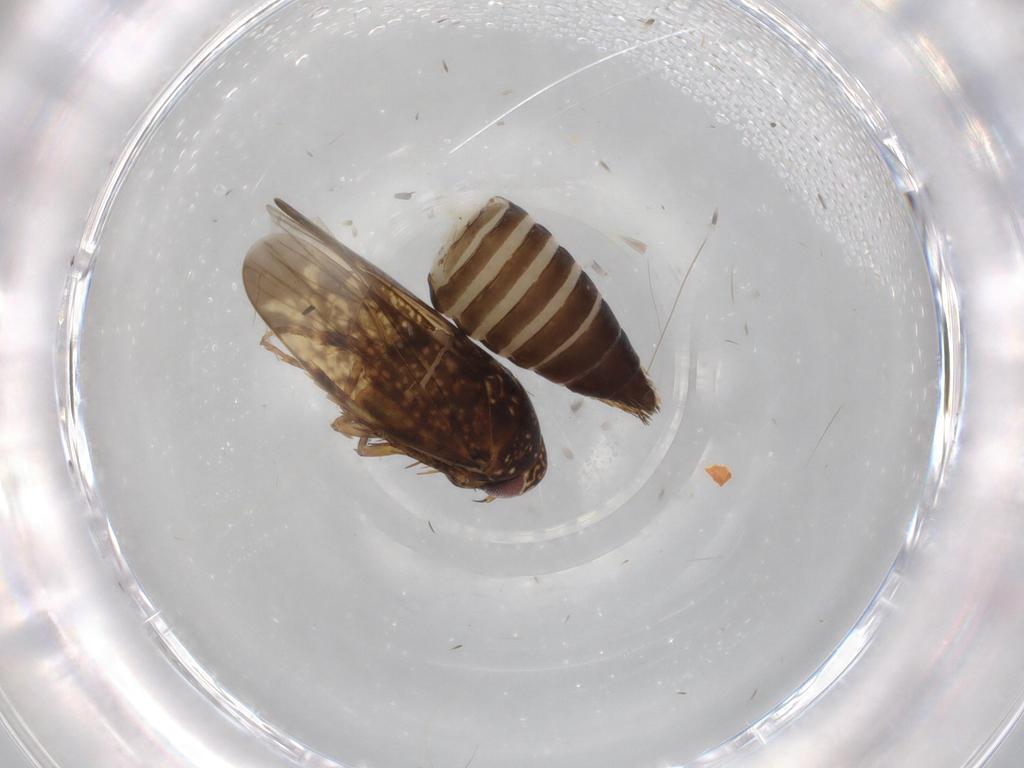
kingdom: Animalia
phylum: Arthropoda
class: Insecta
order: Hemiptera
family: Cicadellidae
